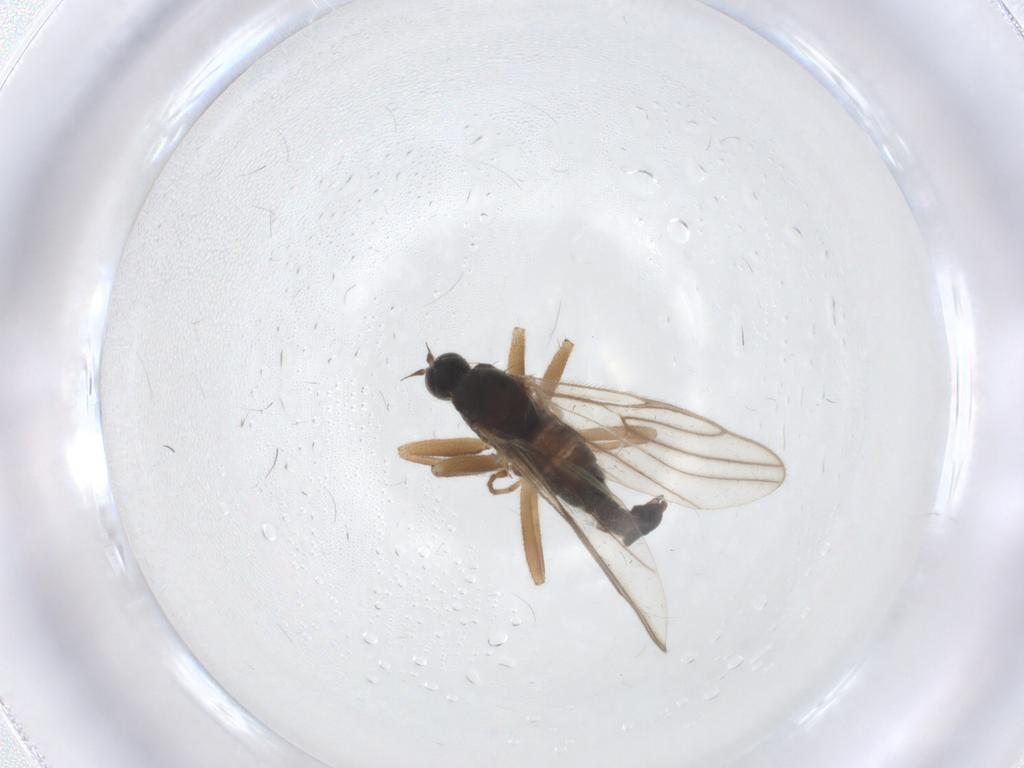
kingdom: Animalia
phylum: Arthropoda
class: Insecta
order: Diptera
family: Hybotidae
